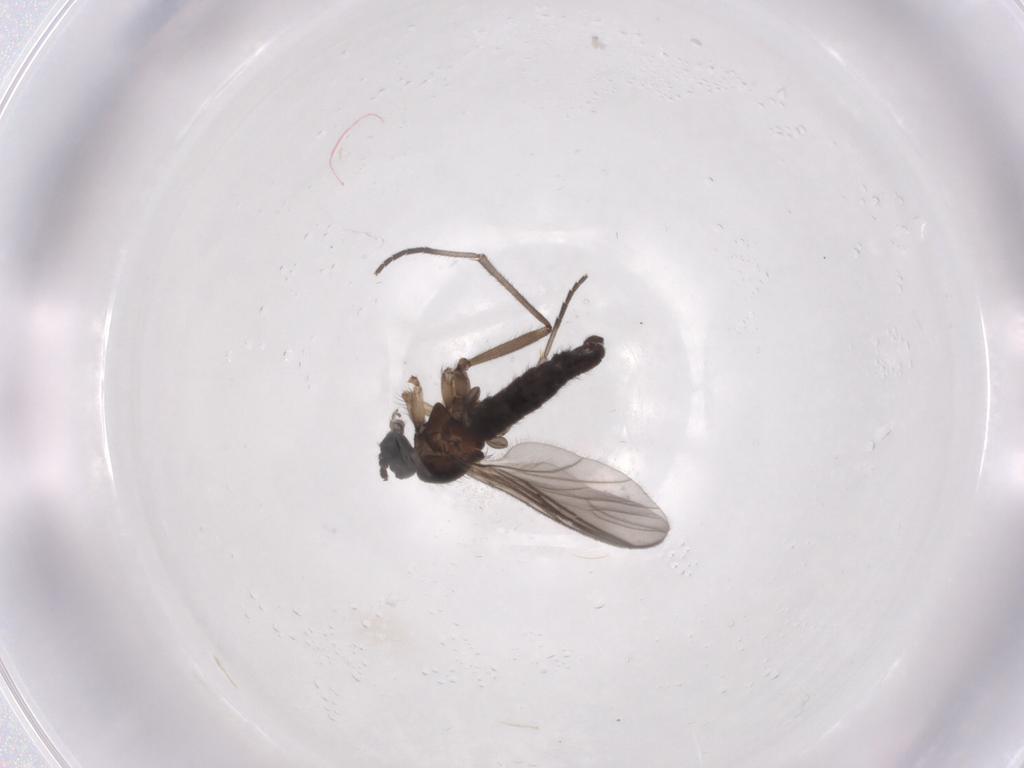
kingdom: Animalia
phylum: Arthropoda
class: Insecta
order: Diptera
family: Sciaridae
